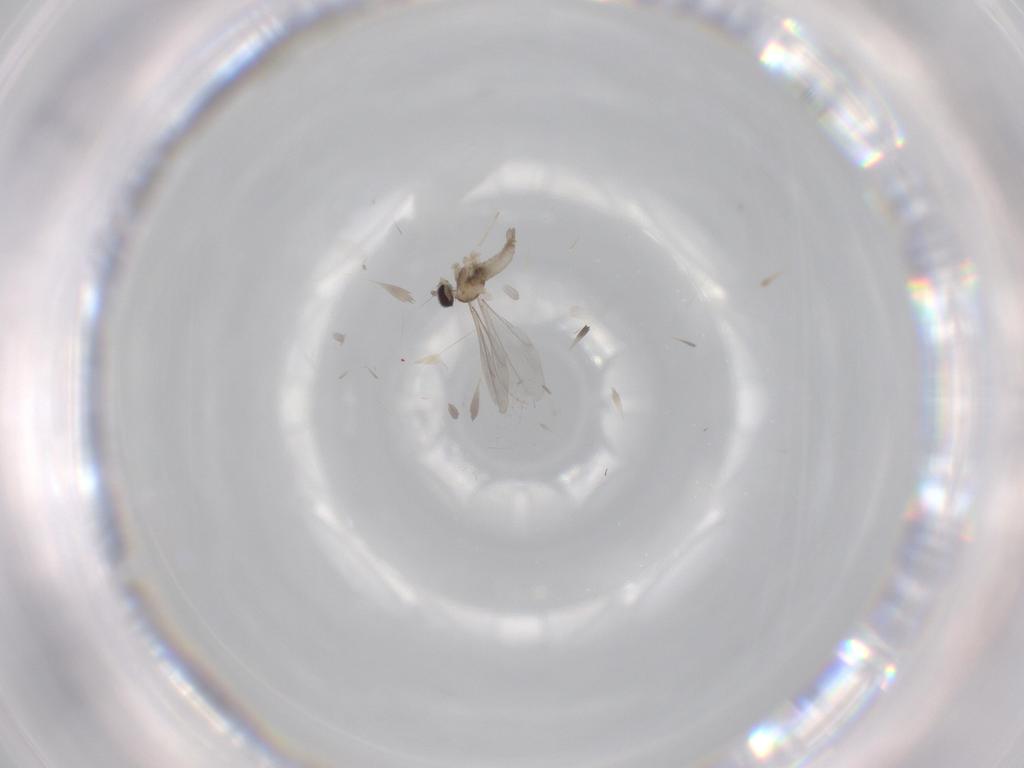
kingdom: Animalia
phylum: Arthropoda
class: Insecta
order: Diptera
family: Cecidomyiidae
